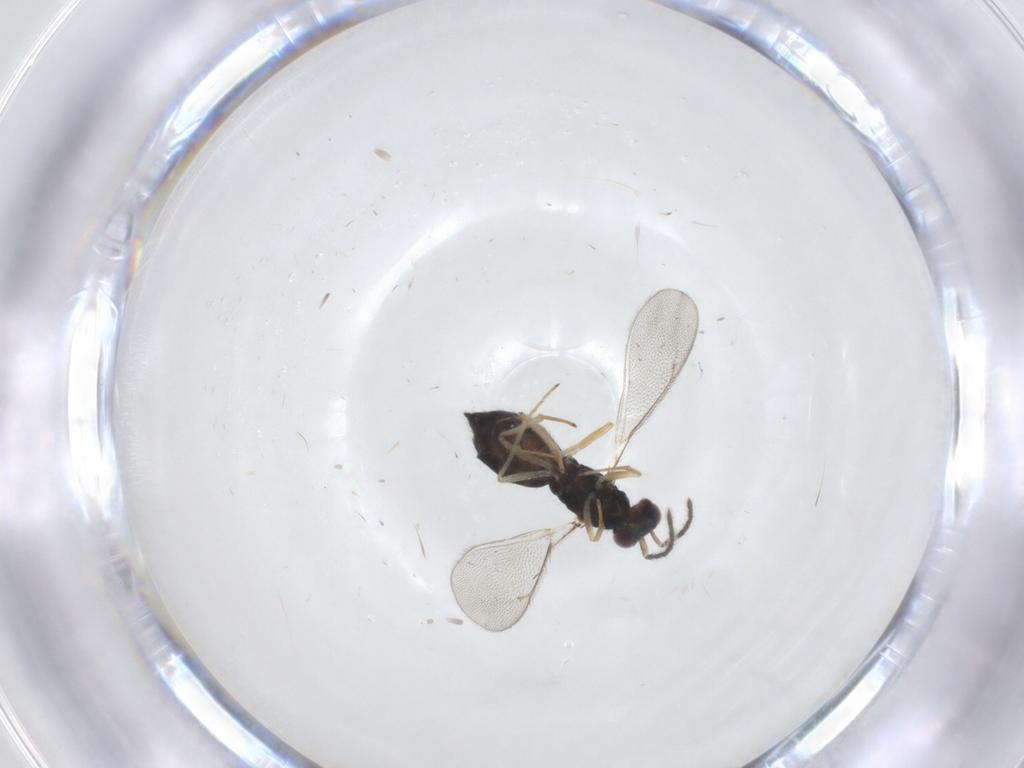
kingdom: Animalia
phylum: Arthropoda
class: Insecta
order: Hymenoptera
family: Eulophidae
